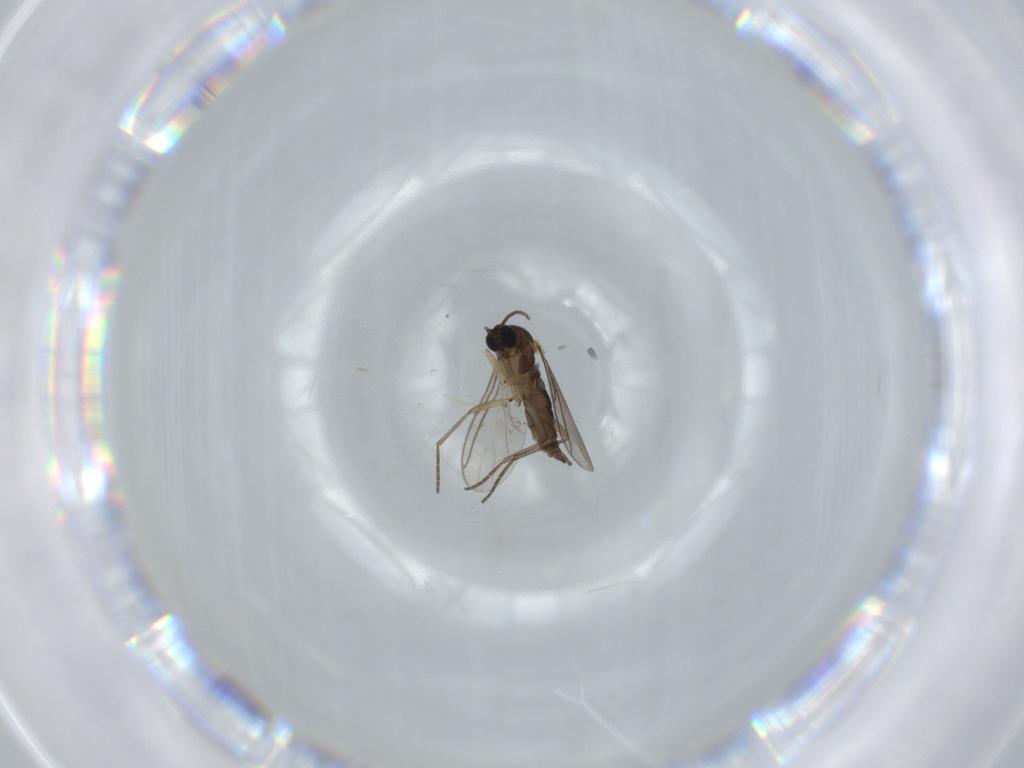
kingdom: Animalia
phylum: Arthropoda
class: Insecta
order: Diptera
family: Sciaridae
